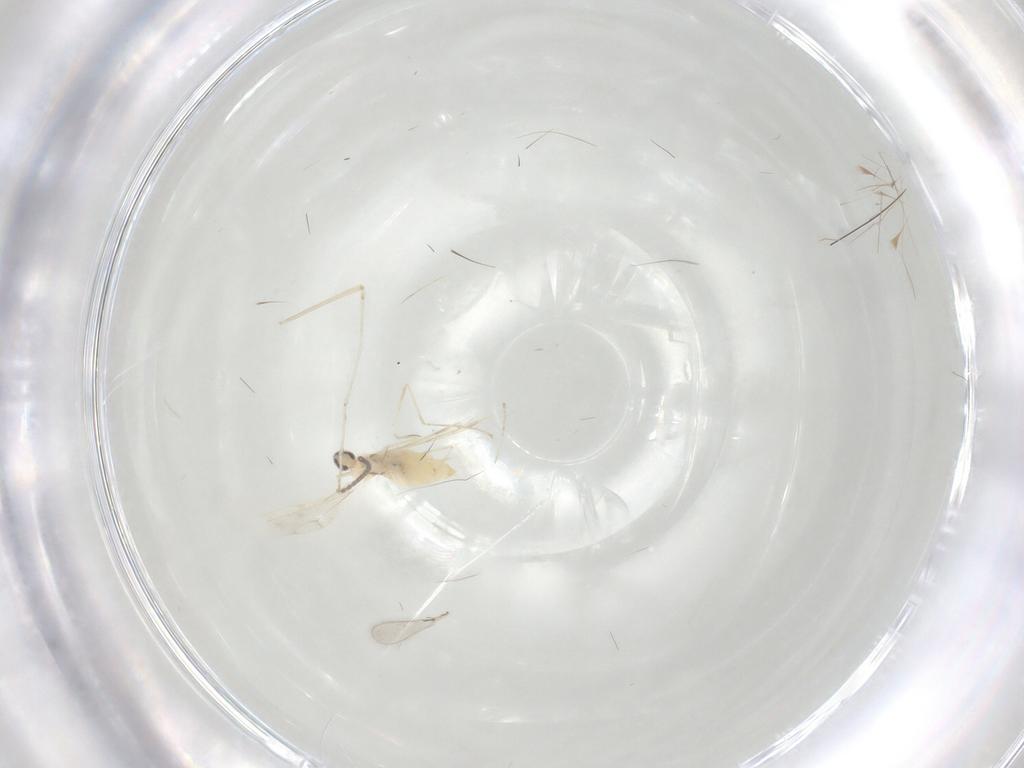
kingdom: Animalia
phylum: Arthropoda
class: Insecta
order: Diptera
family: Cecidomyiidae
